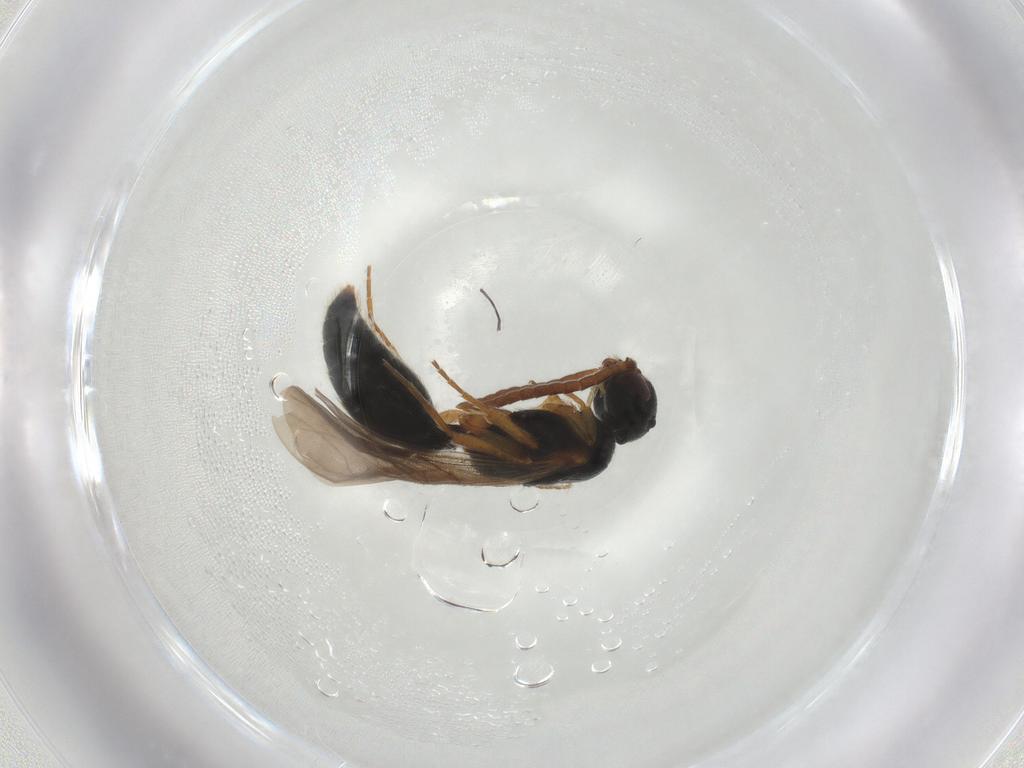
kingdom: Animalia
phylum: Arthropoda
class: Insecta
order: Hymenoptera
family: Mutillidae
